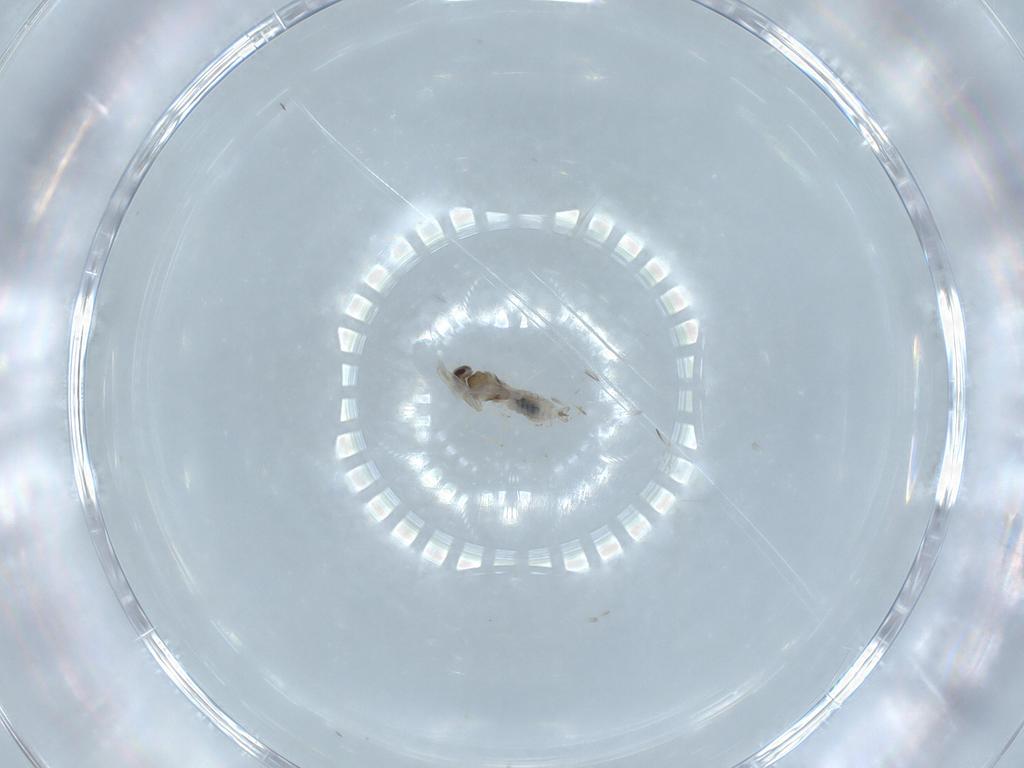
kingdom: Animalia
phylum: Arthropoda
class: Insecta
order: Diptera
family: Cecidomyiidae
